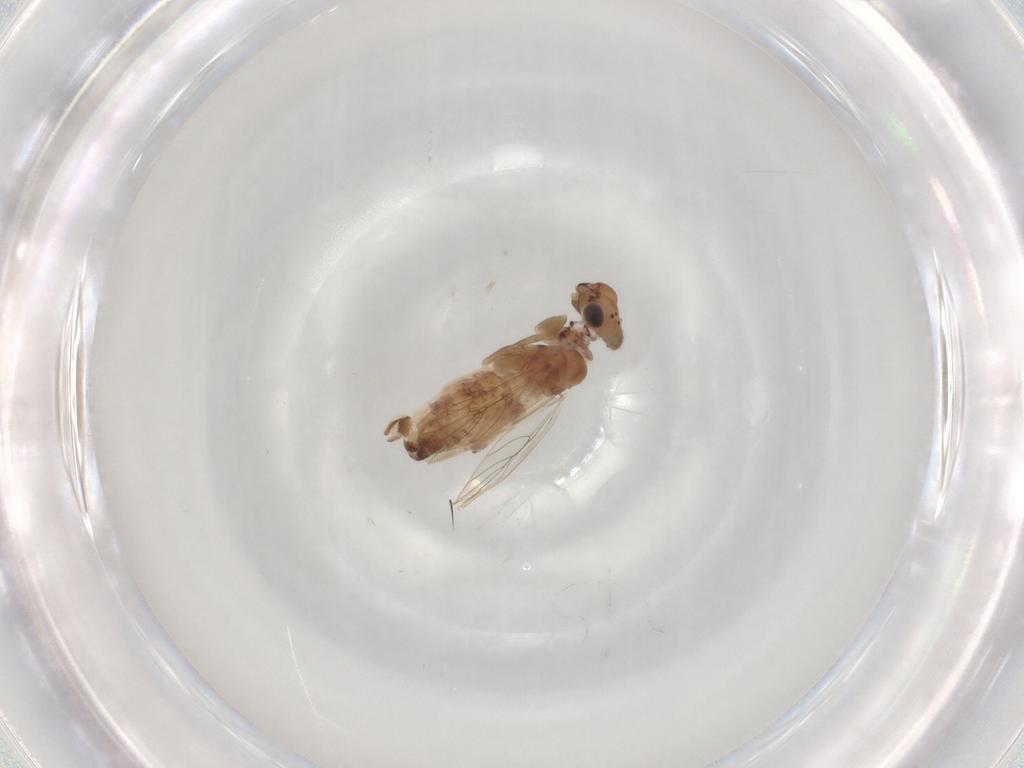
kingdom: Animalia
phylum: Arthropoda
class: Insecta
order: Psocodea
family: Lepidopsocidae
